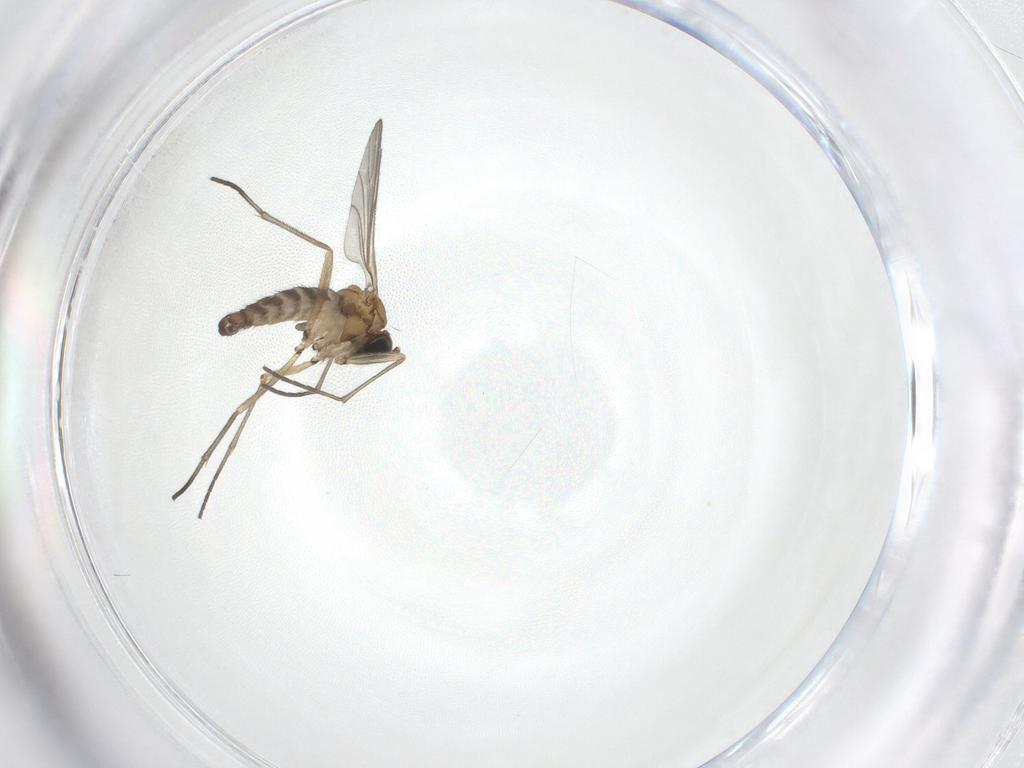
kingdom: Animalia
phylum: Arthropoda
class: Insecta
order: Diptera
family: Sciaridae
